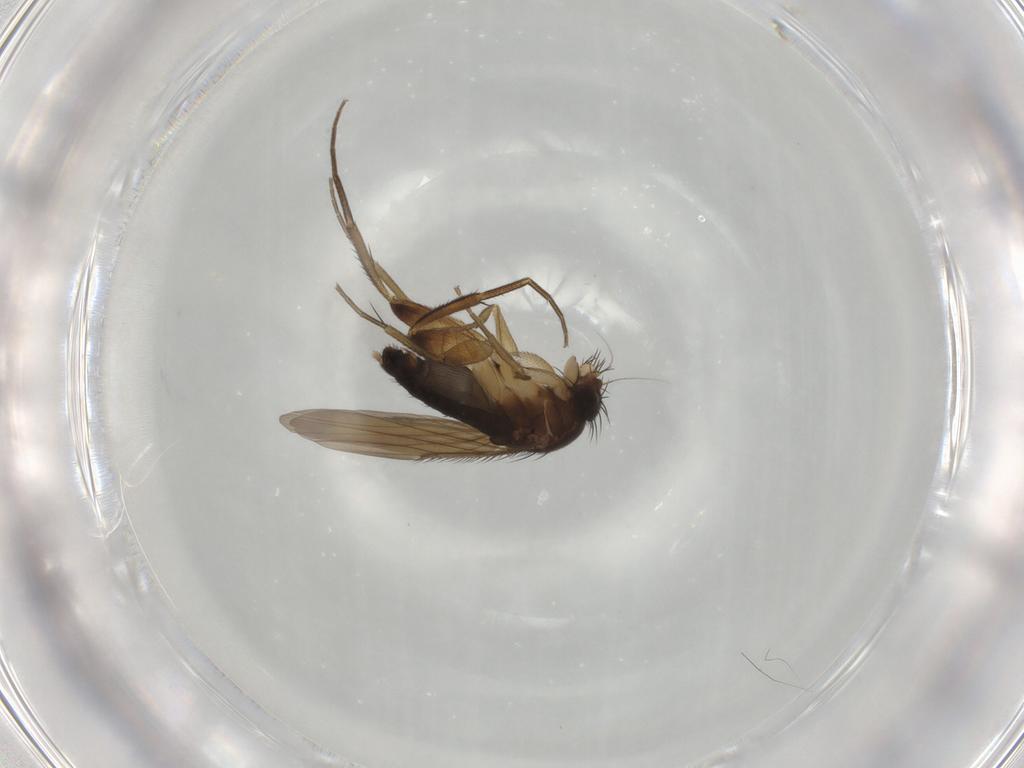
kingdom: Animalia
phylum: Arthropoda
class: Insecta
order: Diptera
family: Phoridae
